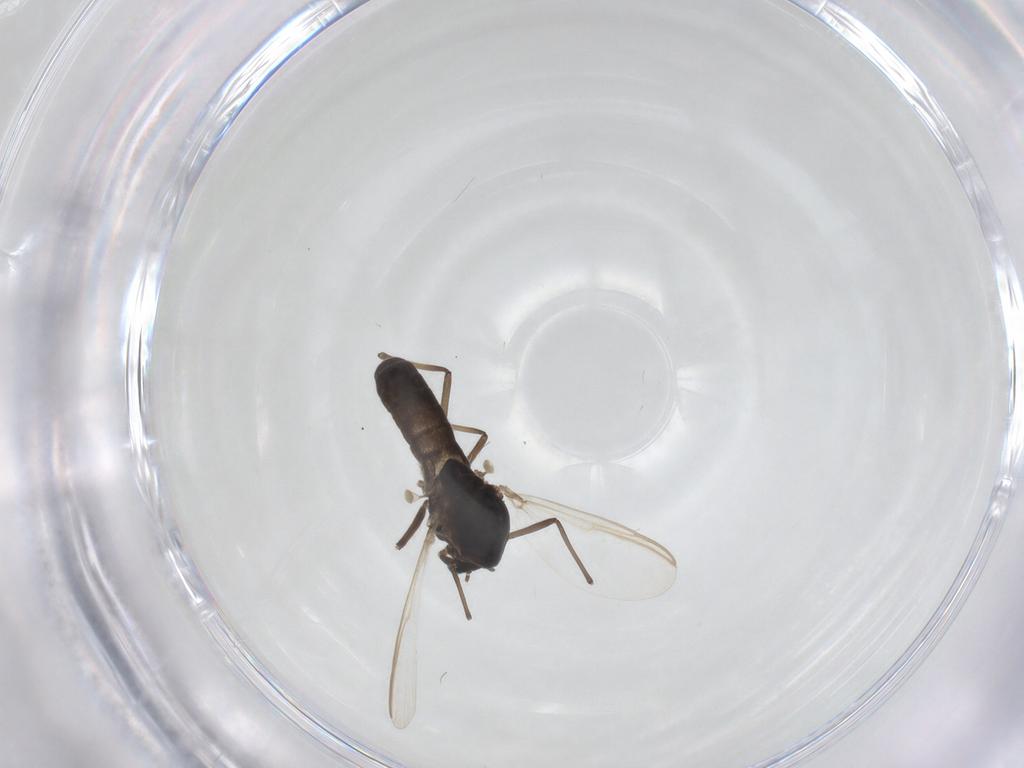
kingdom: Animalia
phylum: Arthropoda
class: Insecta
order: Diptera
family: Chironomidae
